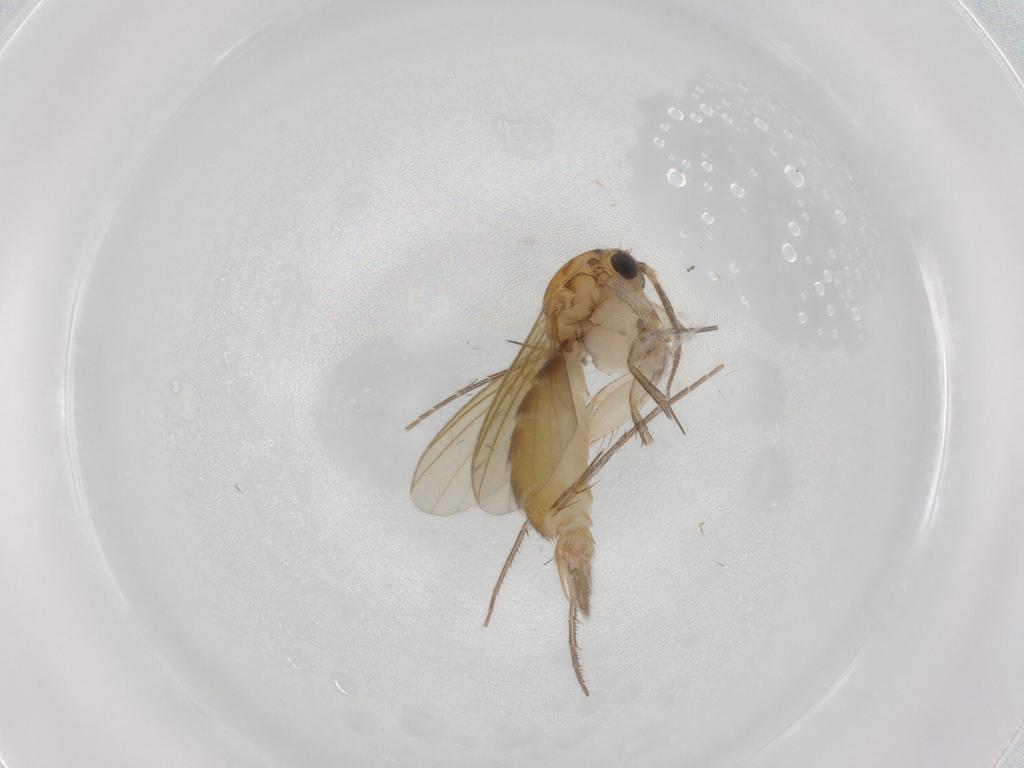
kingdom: Animalia
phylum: Arthropoda
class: Insecta
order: Diptera
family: Mycetophilidae
